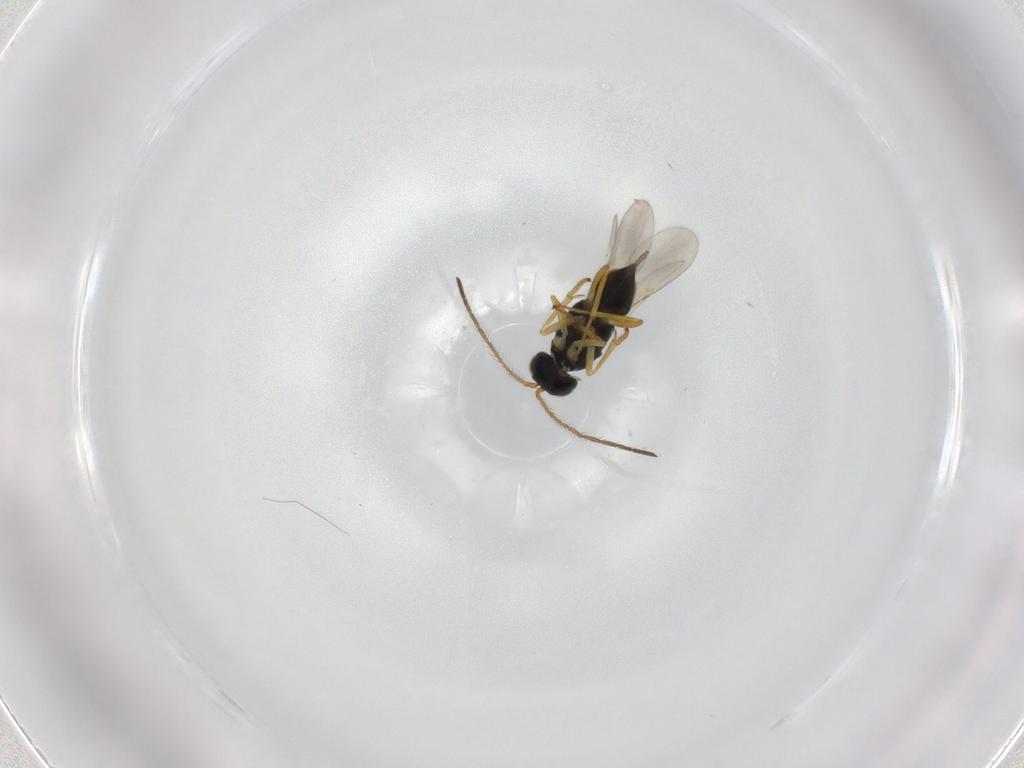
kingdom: Animalia
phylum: Arthropoda
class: Insecta
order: Hymenoptera
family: Encyrtidae
